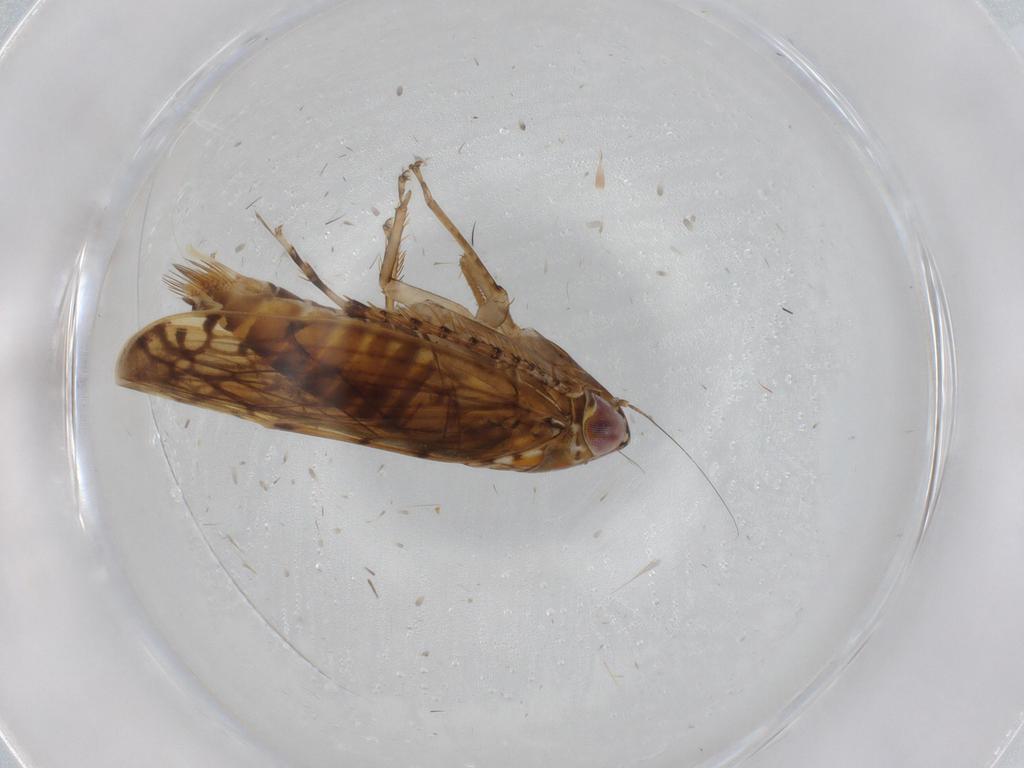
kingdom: Animalia
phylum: Arthropoda
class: Insecta
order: Hemiptera
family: Cicadellidae
